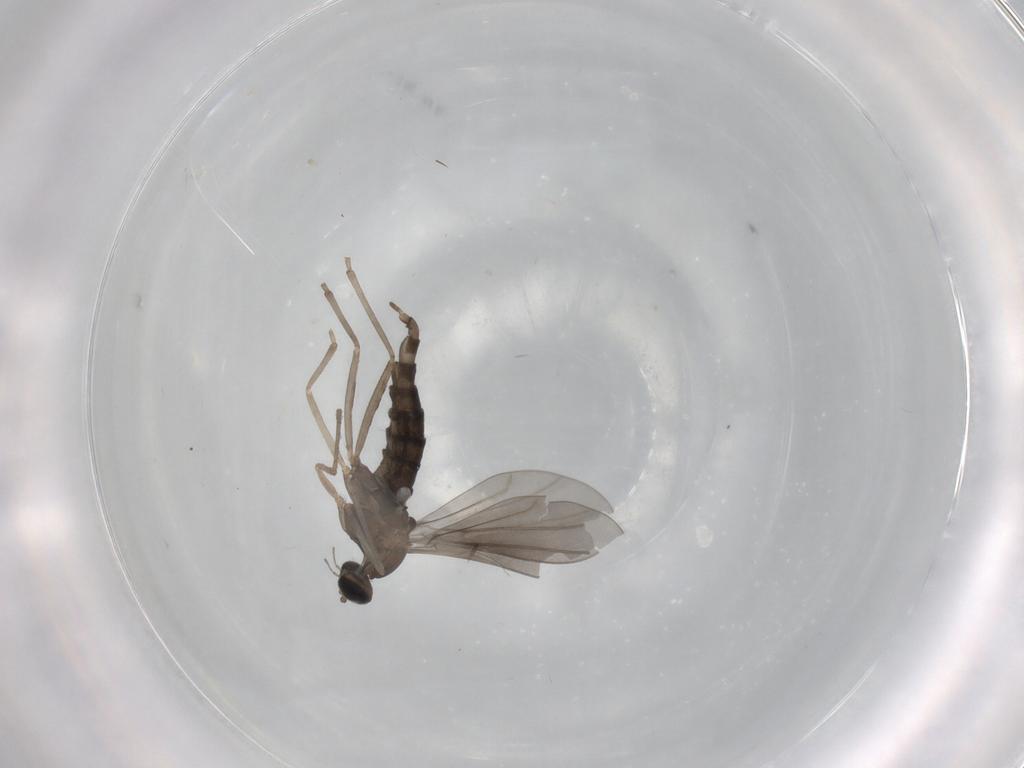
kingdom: Animalia
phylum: Arthropoda
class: Insecta
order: Diptera
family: Cecidomyiidae
